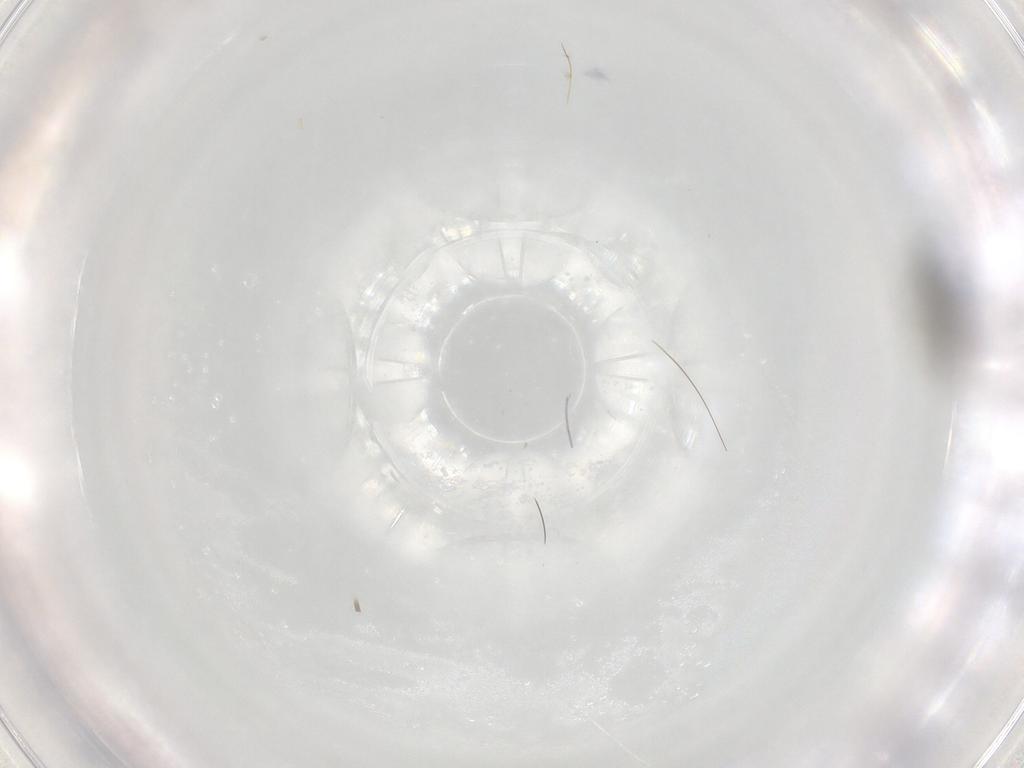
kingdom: Animalia
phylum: Arthropoda
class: Insecta
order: Hymenoptera
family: Platygastridae
